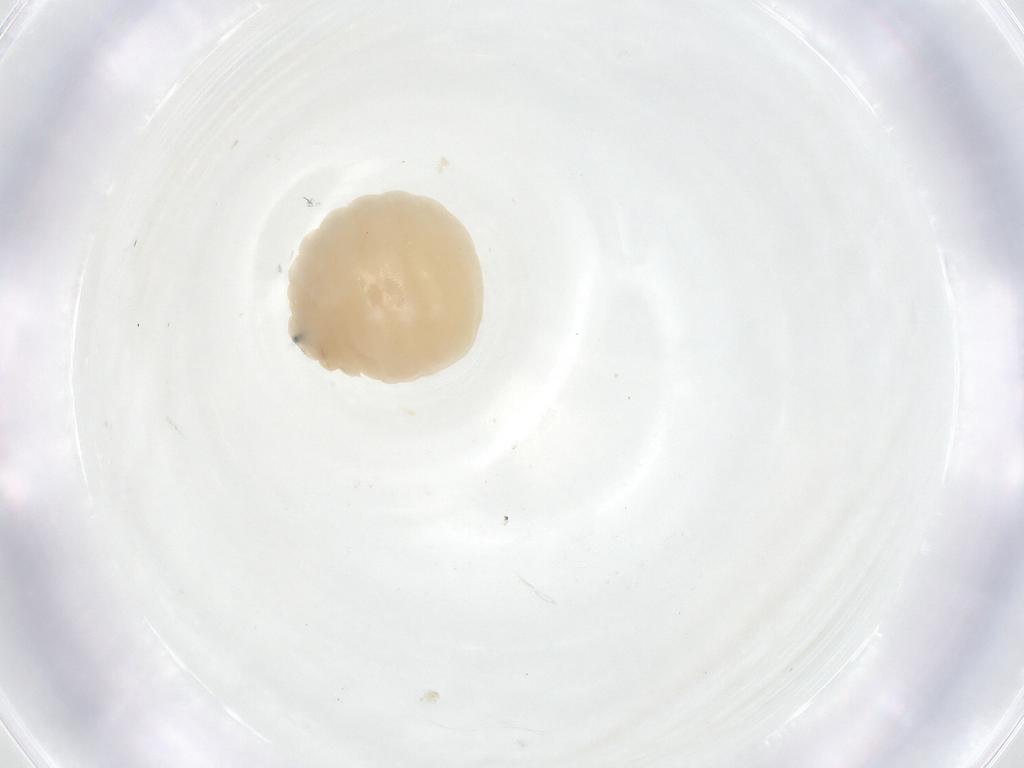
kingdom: Animalia
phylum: Arthropoda
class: Insecta
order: Diptera
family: Fergusoninidae
